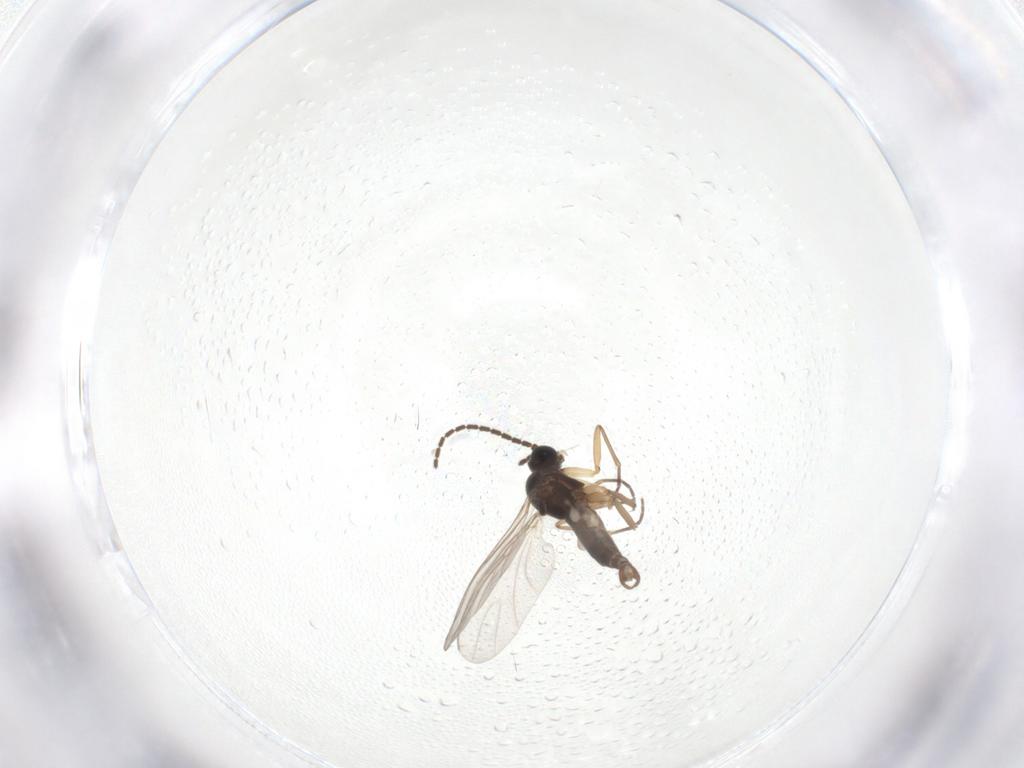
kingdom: Animalia
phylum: Arthropoda
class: Insecta
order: Diptera
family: Sciaridae
